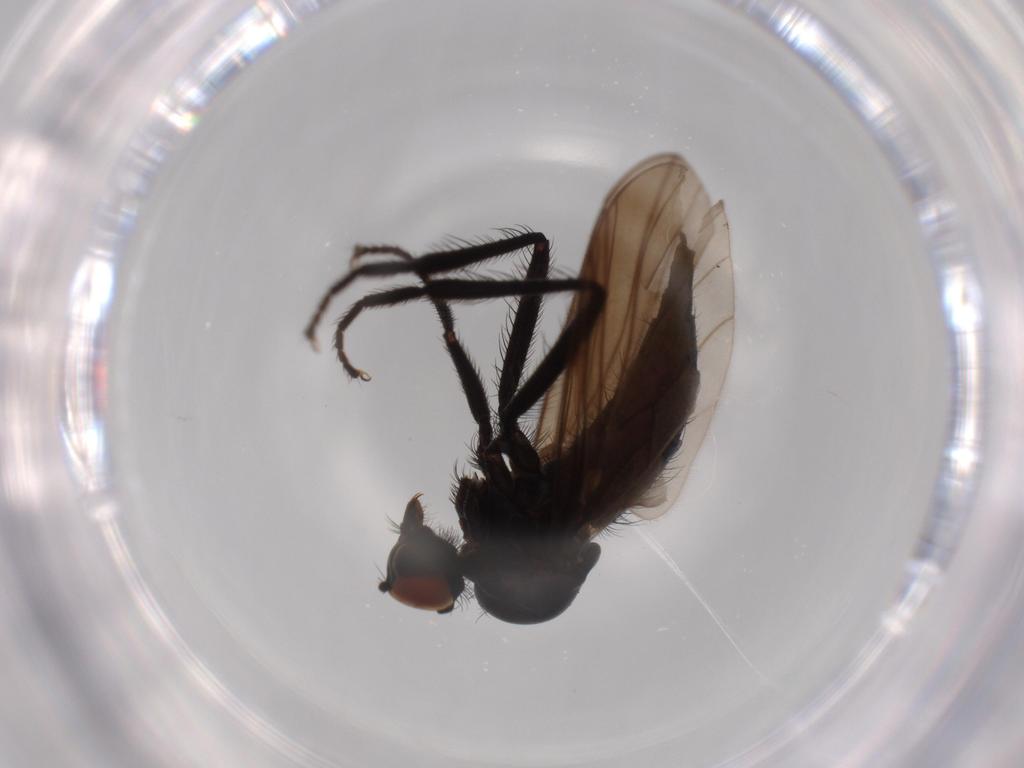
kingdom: Animalia
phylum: Arthropoda
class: Insecta
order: Diptera
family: Hybotidae
